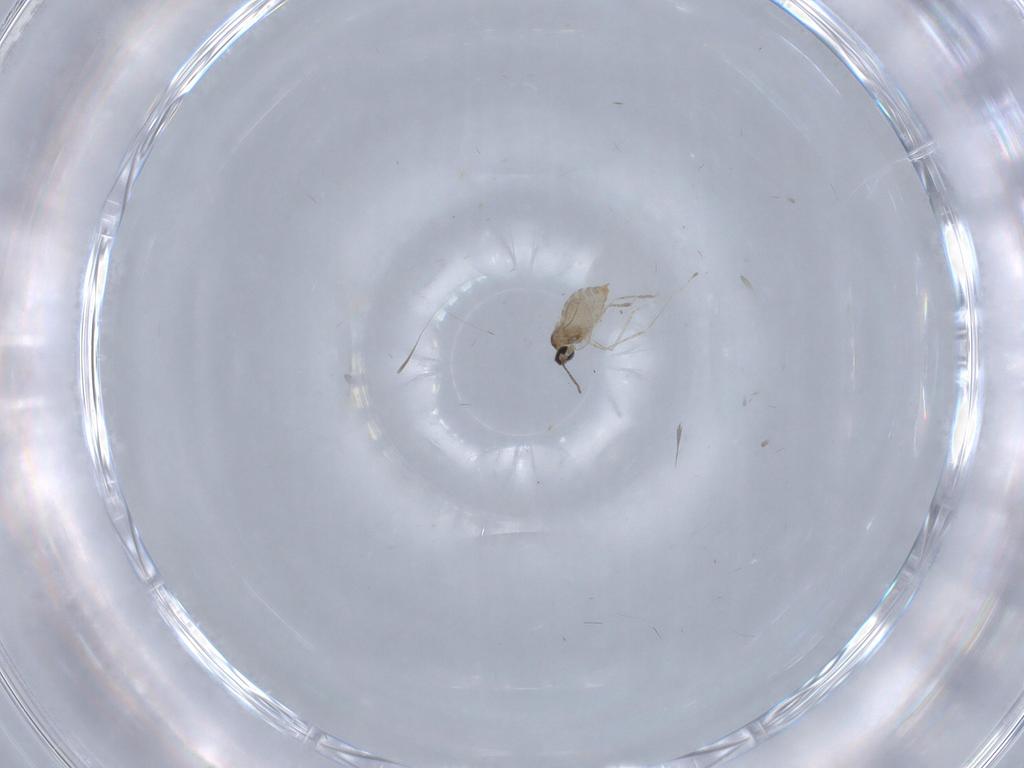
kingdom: Animalia
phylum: Arthropoda
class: Insecta
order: Diptera
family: Cecidomyiidae
